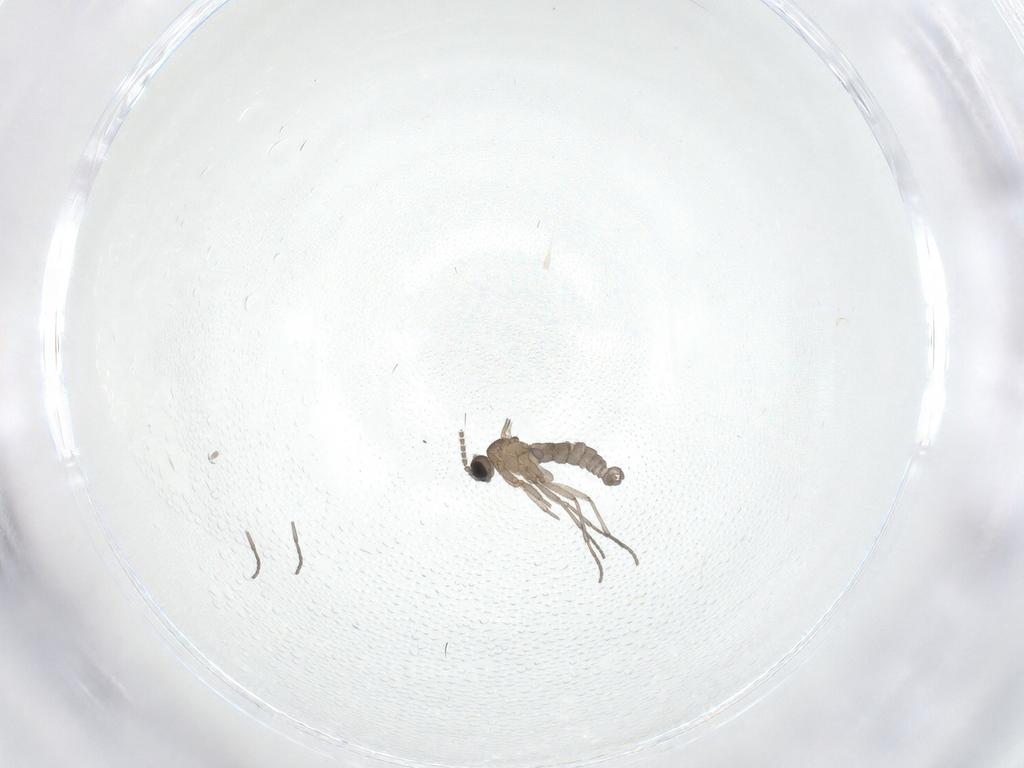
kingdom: Animalia
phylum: Arthropoda
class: Insecta
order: Diptera
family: Sciaridae
